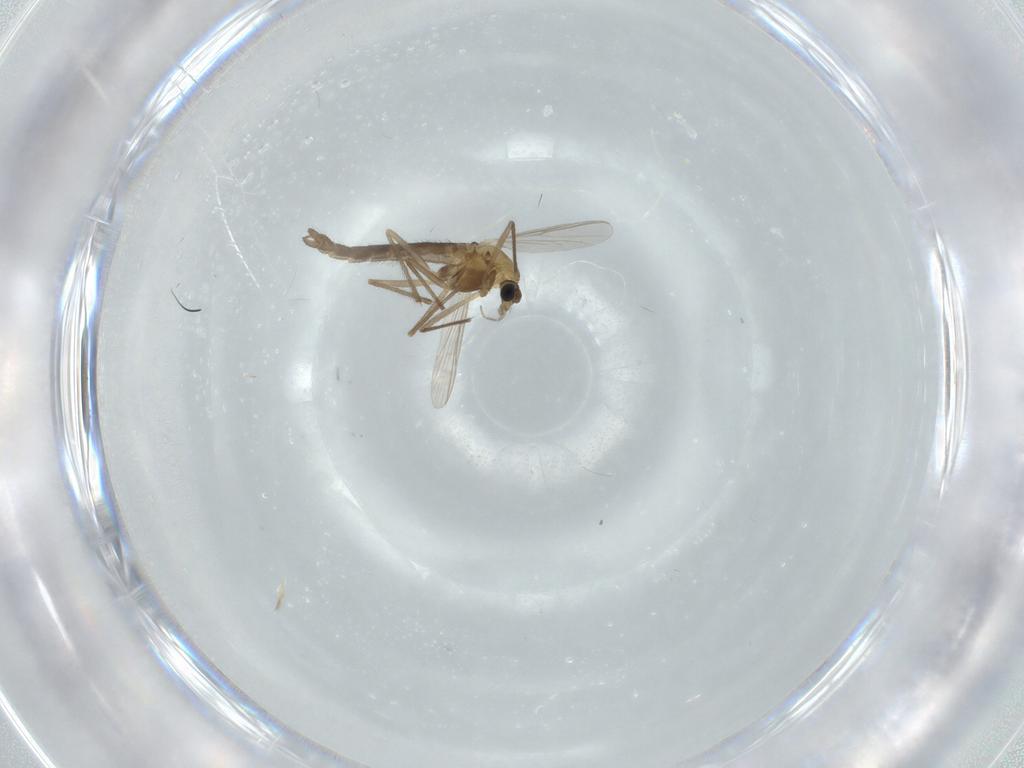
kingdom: Animalia
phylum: Arthropoda
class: Insecta
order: Diptera
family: Chironomidae
